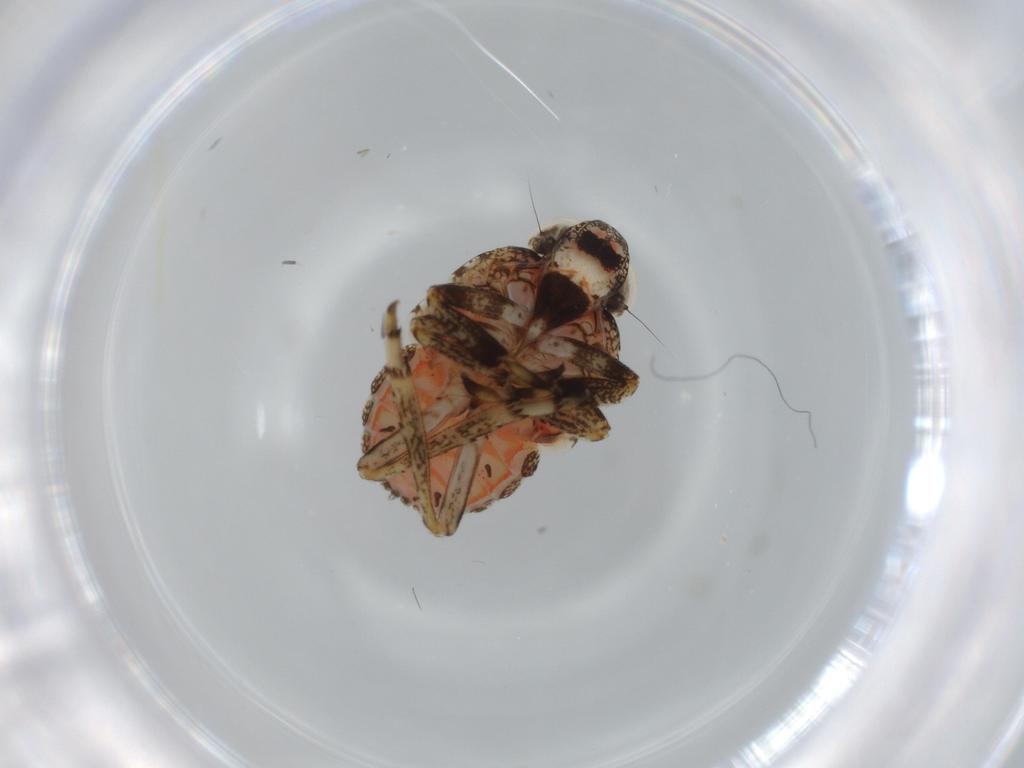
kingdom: Animalia
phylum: Arthropoda
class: Insecta
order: Hemiptera
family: Issidae
